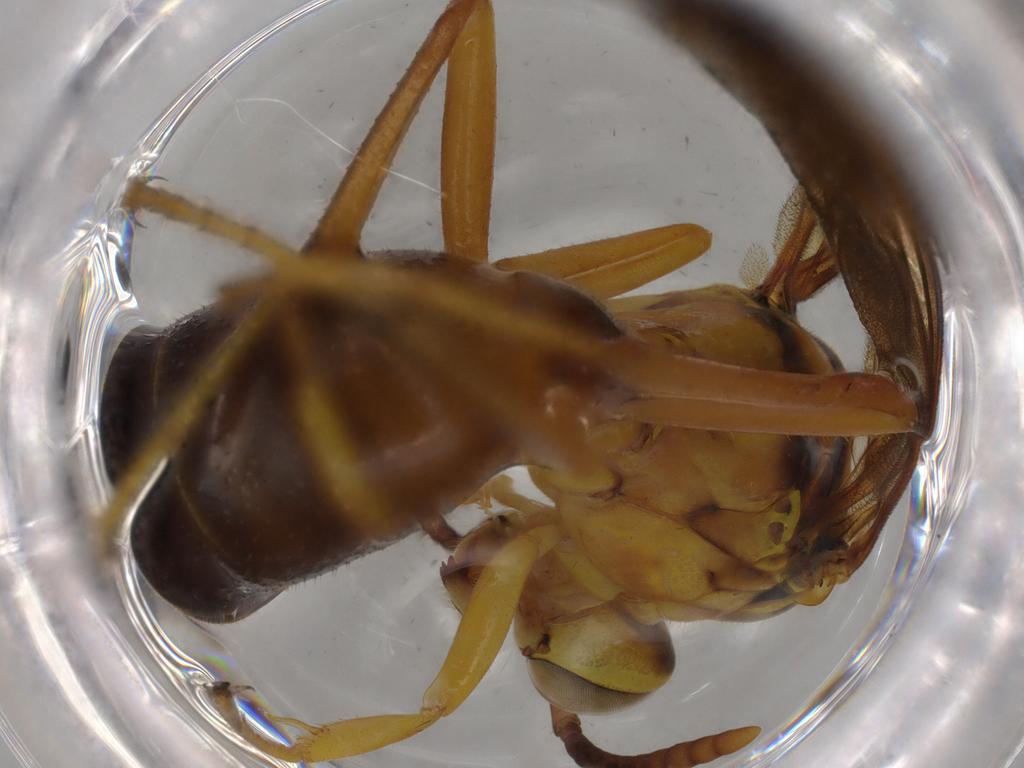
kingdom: Animalia
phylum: Arthropoda
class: Insecta
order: Hymenoptera
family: Vespidae
